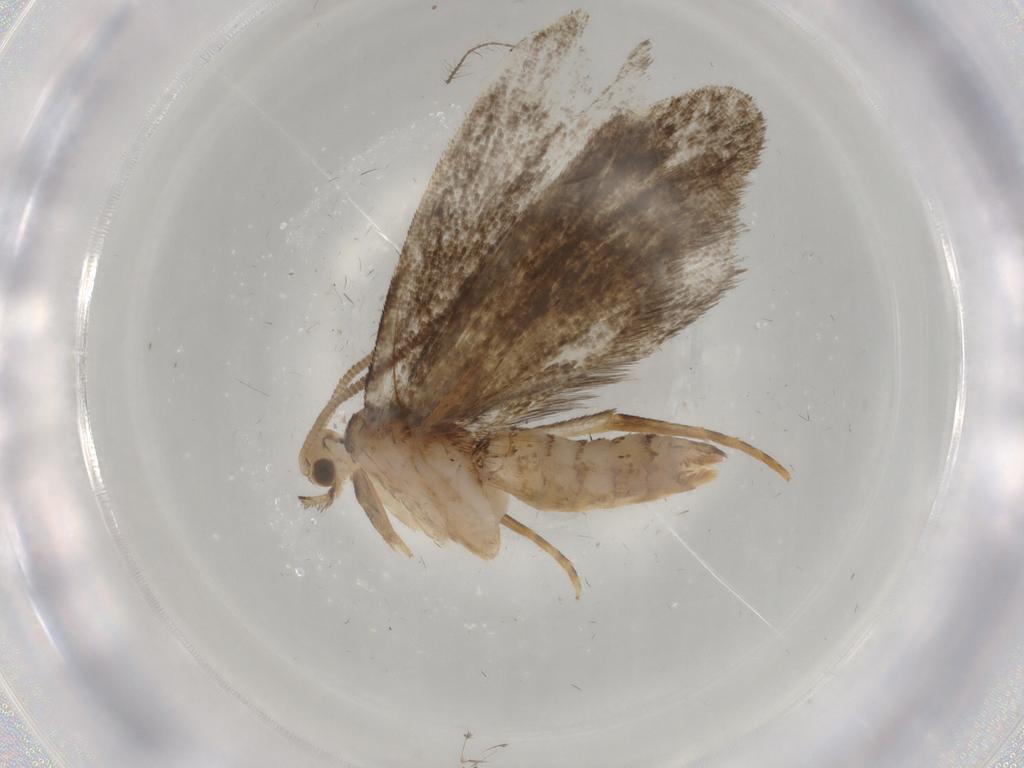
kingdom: Animalia
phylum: Arthropoda
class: Insecta
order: Lepidoptera
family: Dryadaulidae
